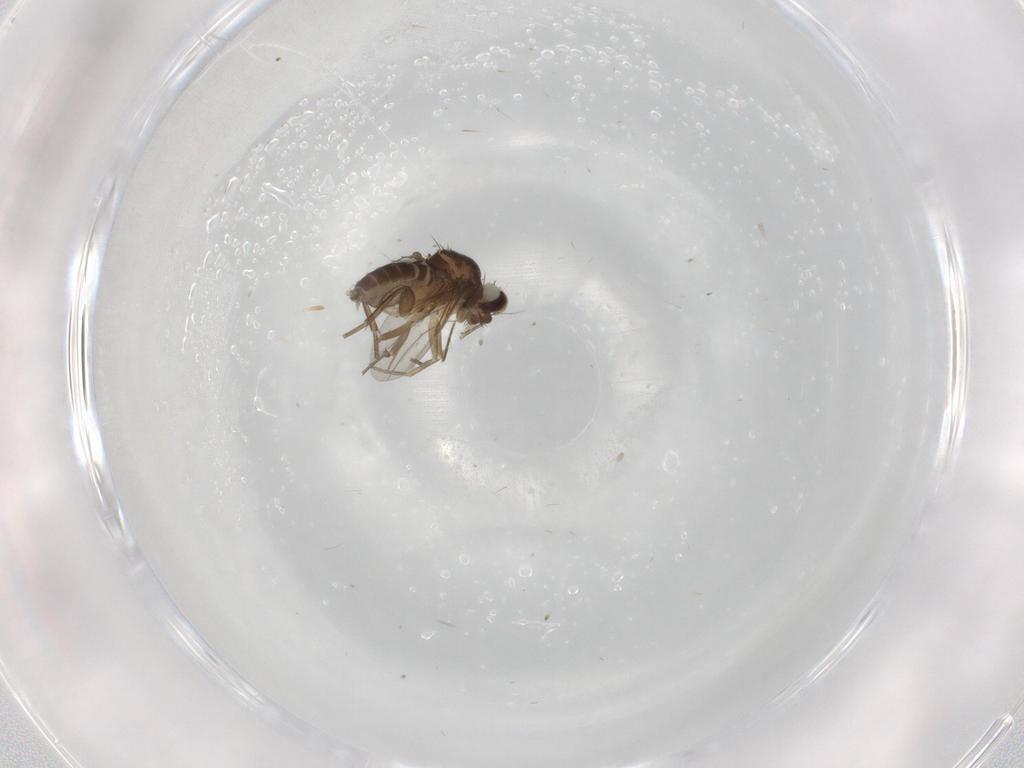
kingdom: Animalia
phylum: Arthropoda
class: Insecta
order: Diptera
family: Phoridae
